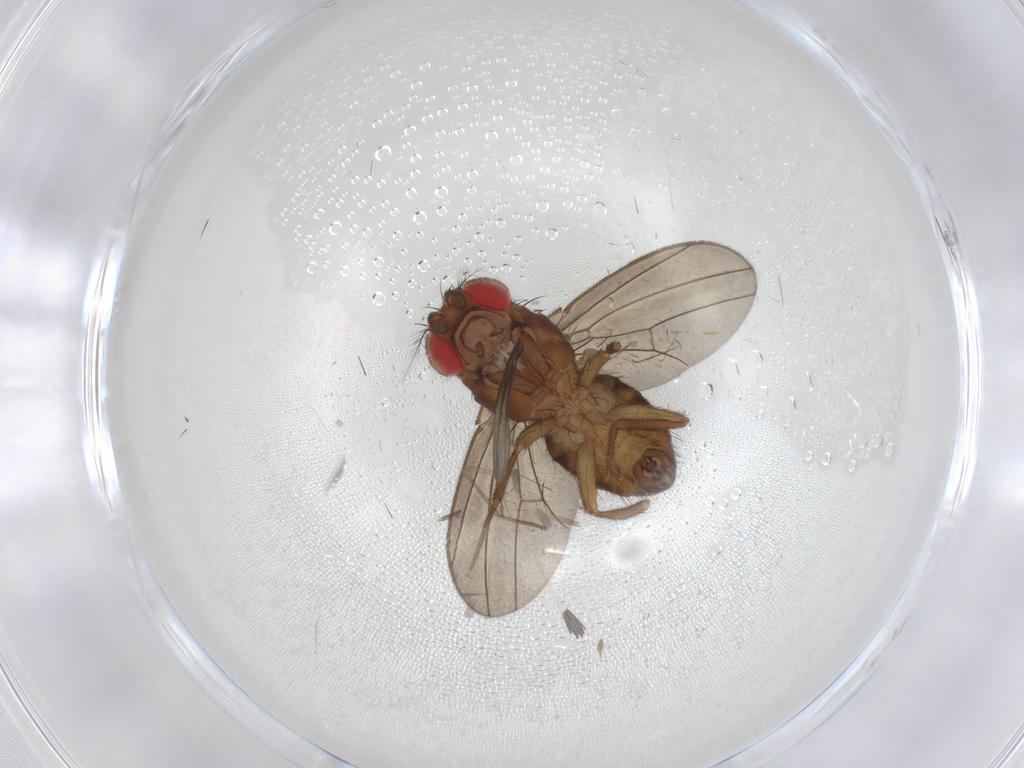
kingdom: Animalia
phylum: Arthropoda
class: Insecta
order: Diptera
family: Drosophilidae
